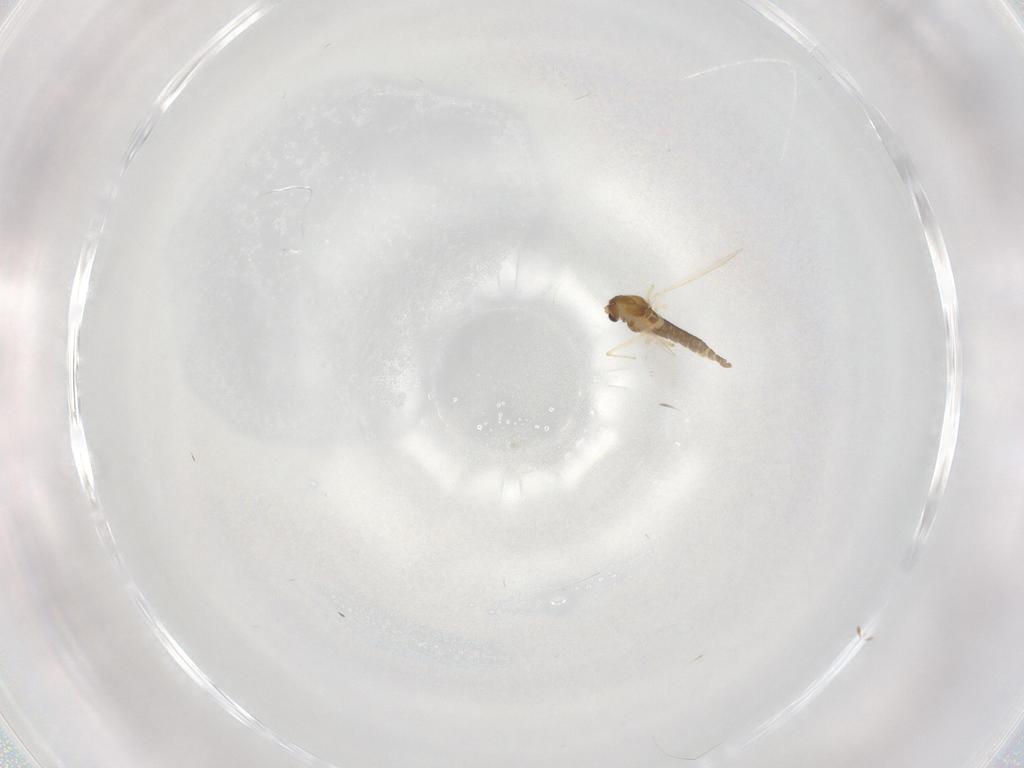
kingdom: Animalia
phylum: Arthropoda
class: Insecta
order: Diptera
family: Chironomidae
